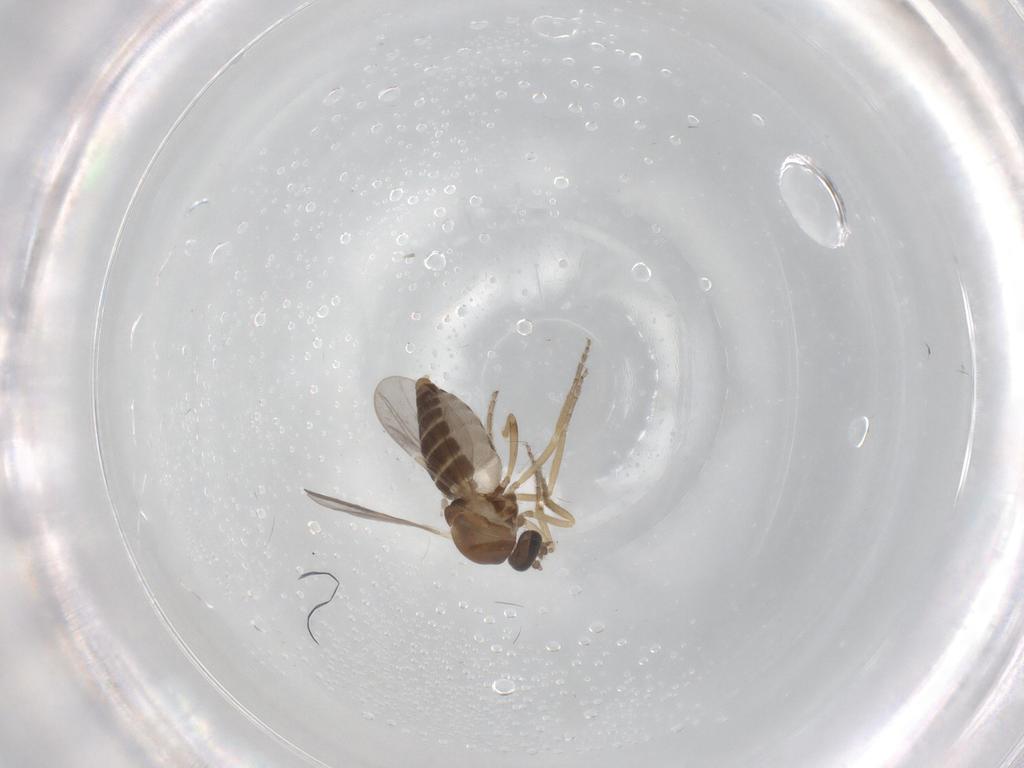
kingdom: Animalia
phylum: Arthropoda
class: Insecta
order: Diptera
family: Ceratopogonidae
